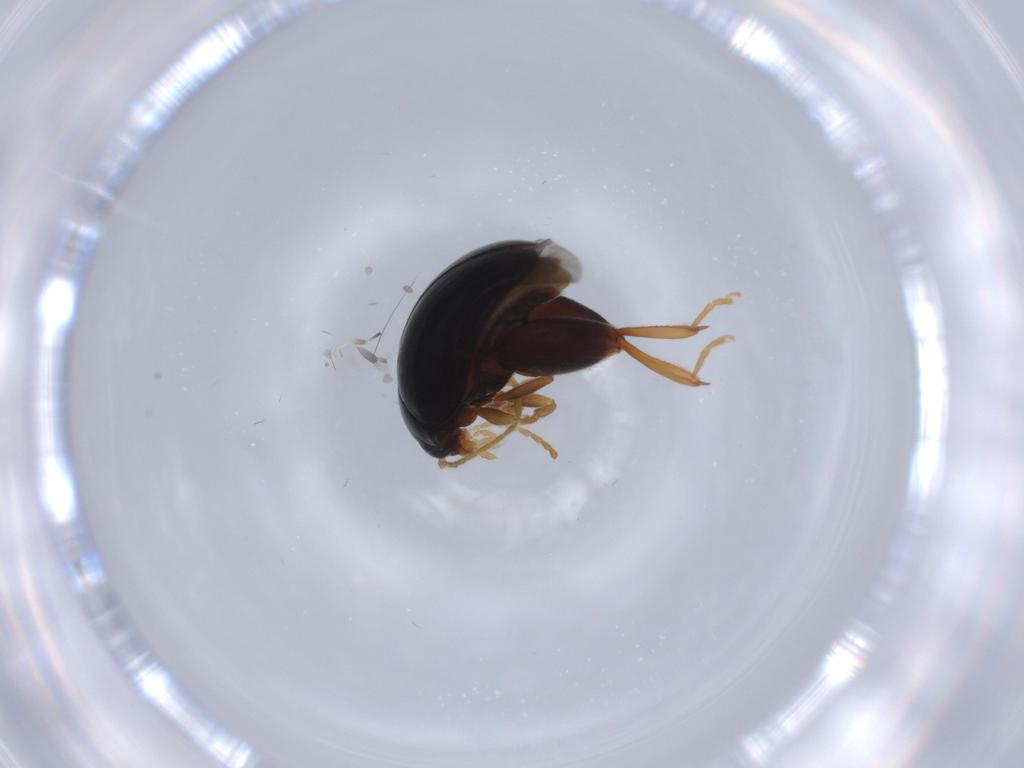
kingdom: Animalia
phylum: Arthropoda
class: Insecta
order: Coleoptera
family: Chrysomelidae
